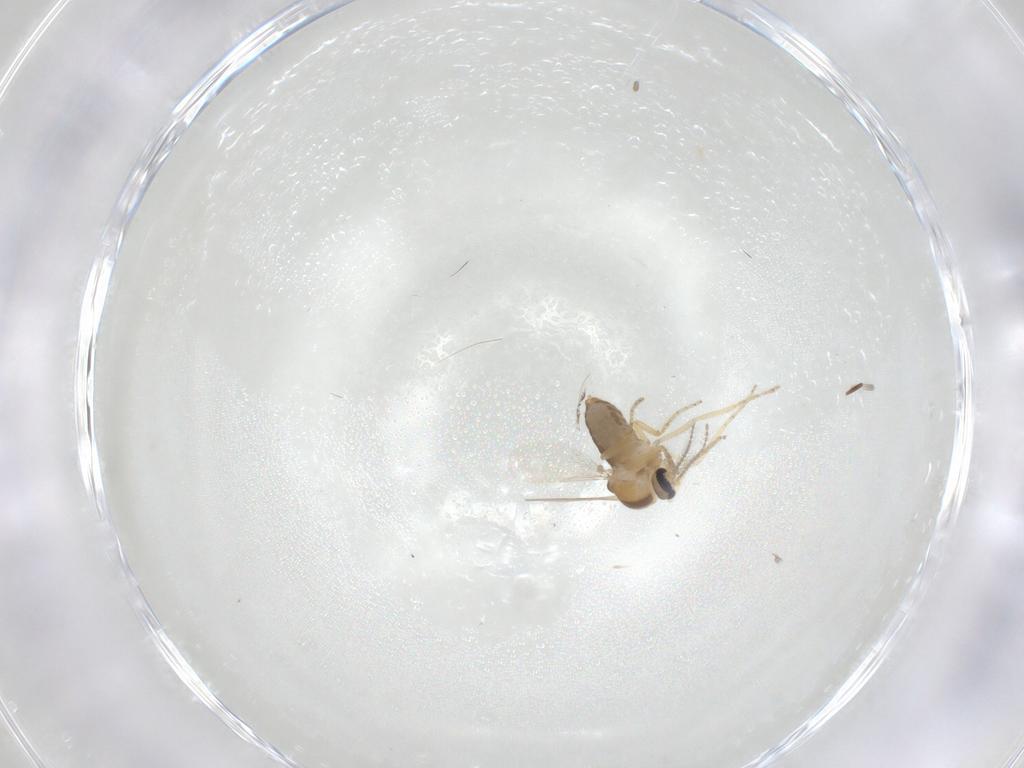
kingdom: Animalia
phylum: Arthropoda
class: Insecta
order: Diptera
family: Ceratopogonidae
